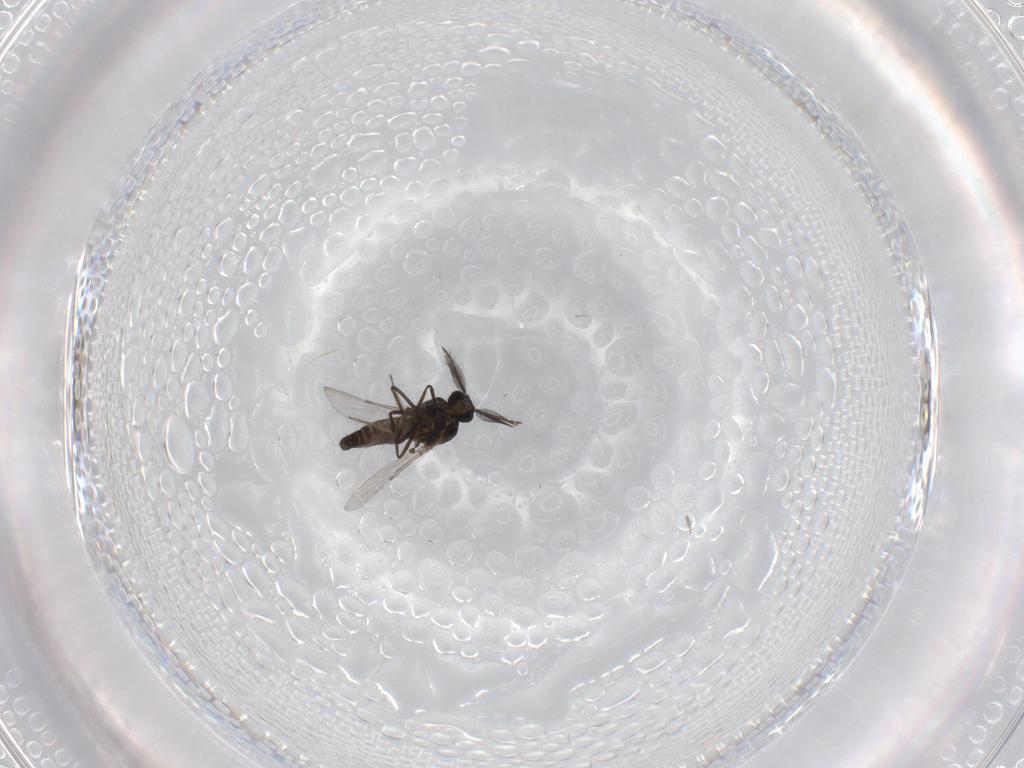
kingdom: Animalia
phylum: Arthropoda
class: Insecta
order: Diptera
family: Ceratopogonidae
